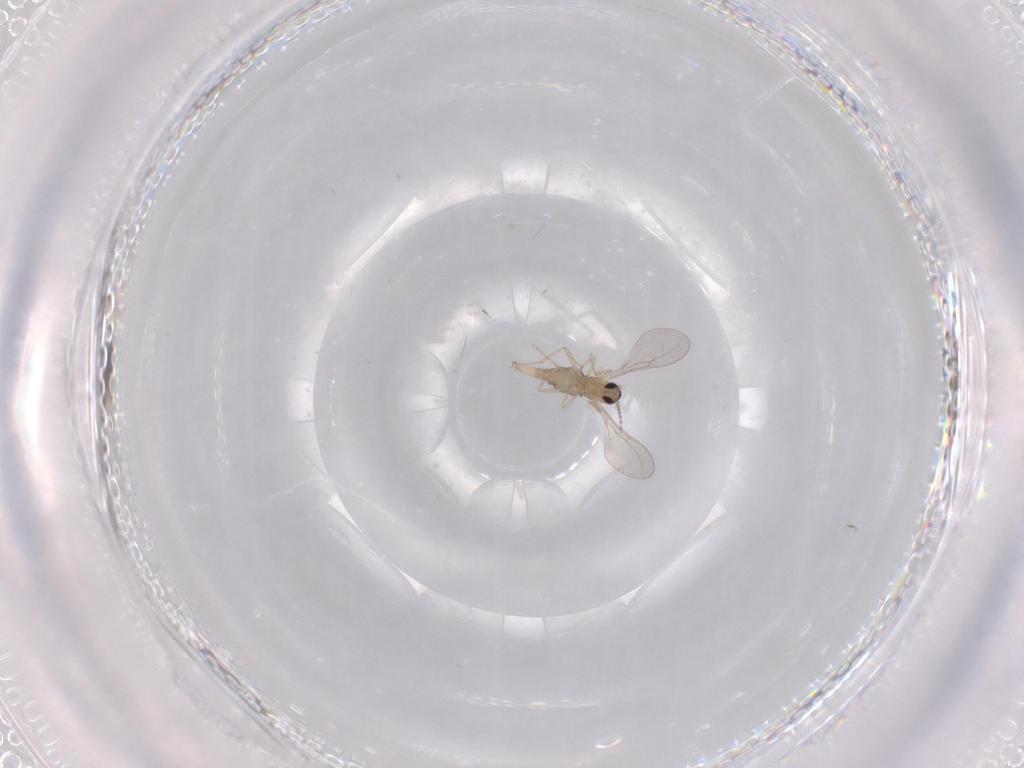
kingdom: Animalia
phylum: Arthropoda
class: Insecta
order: Diptera
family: Cecidomyiidae
